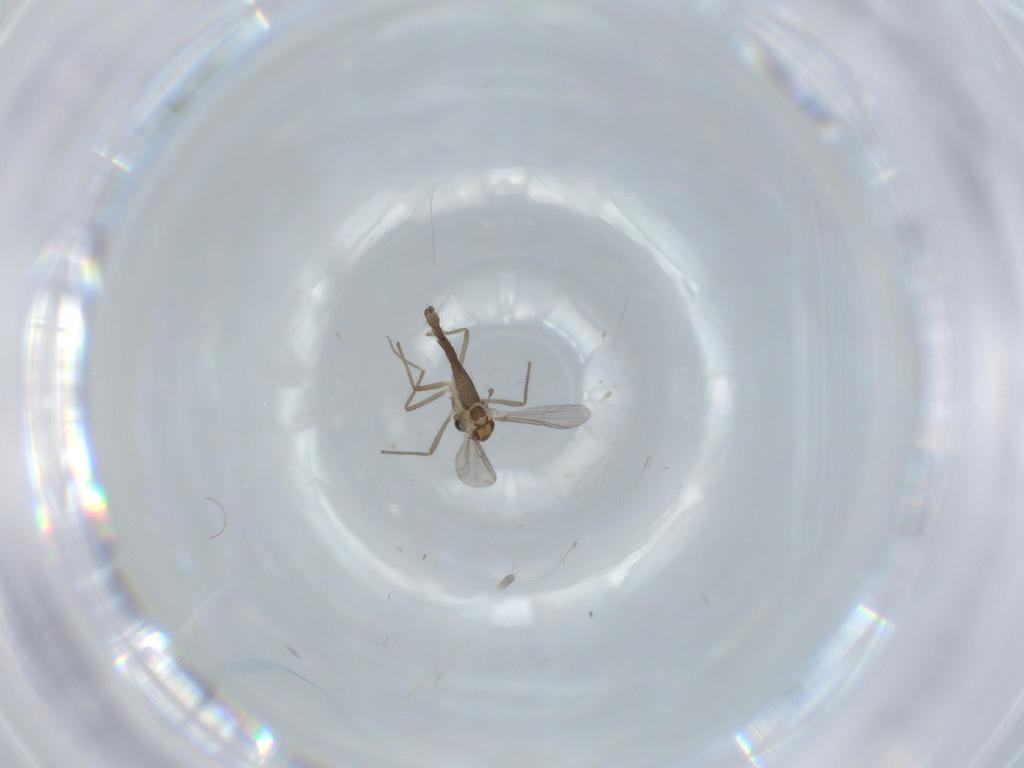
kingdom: Animalia
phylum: Arthropoda
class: Insecta
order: Diptera
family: Chironomidae
